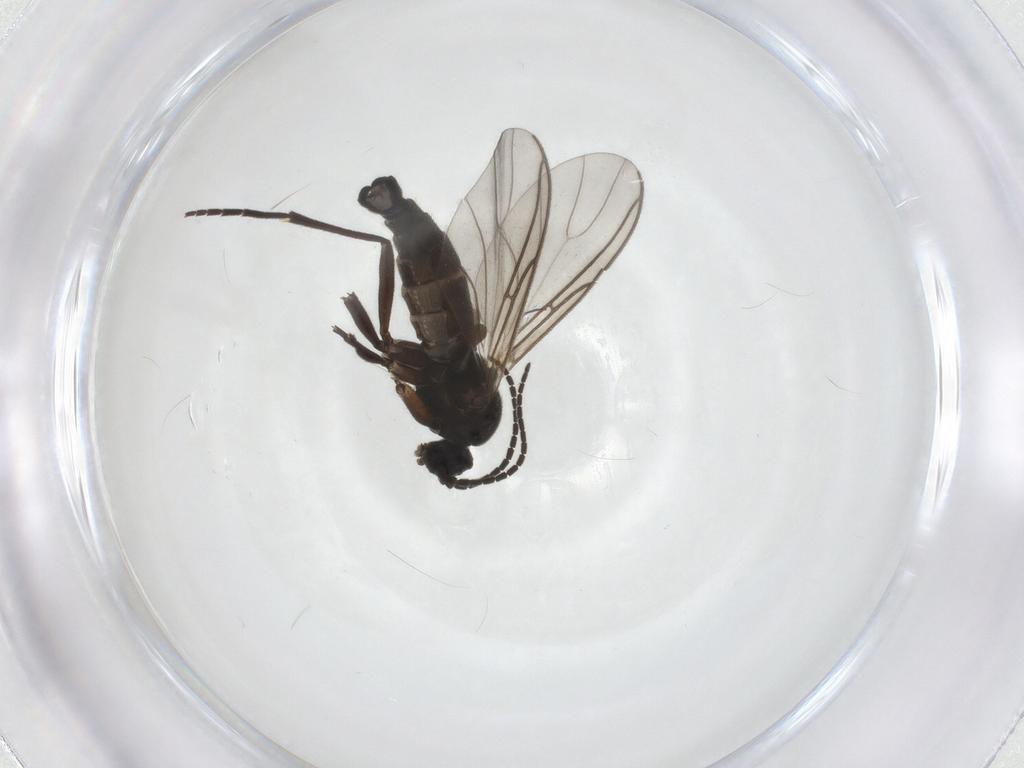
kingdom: Animalia
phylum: Arthropoda
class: Insecta
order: Diptera
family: Sciaridae
